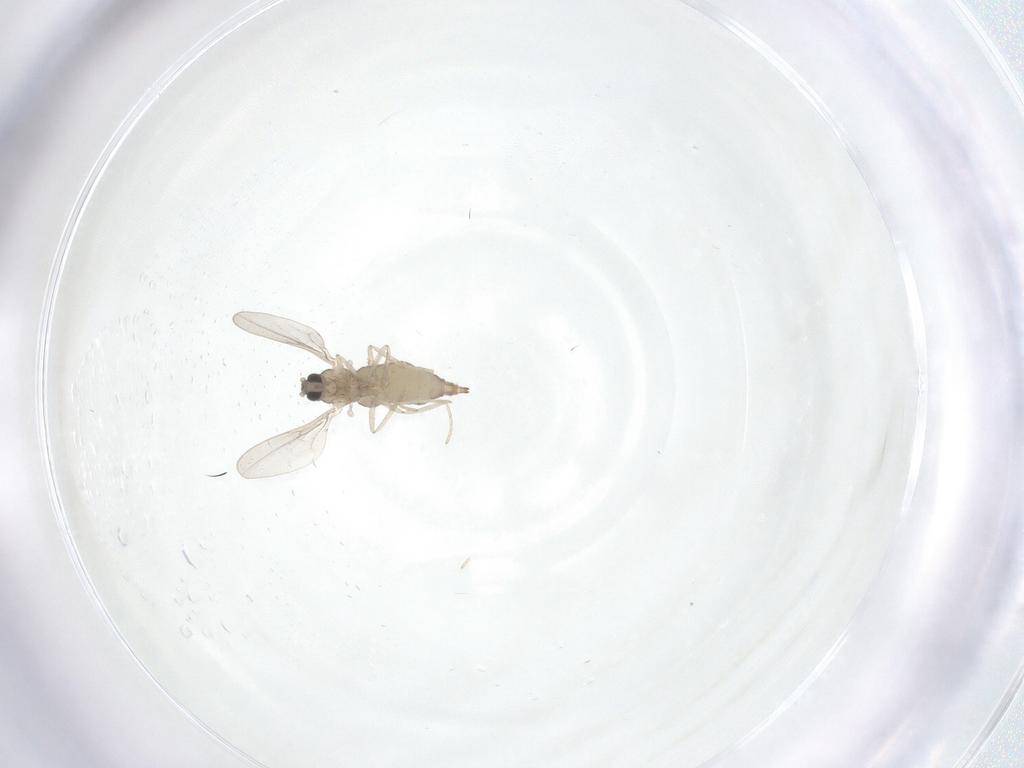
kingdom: Animalia
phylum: Arthropoda
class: Insecta
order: Diptera
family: Cecidomyiidae
